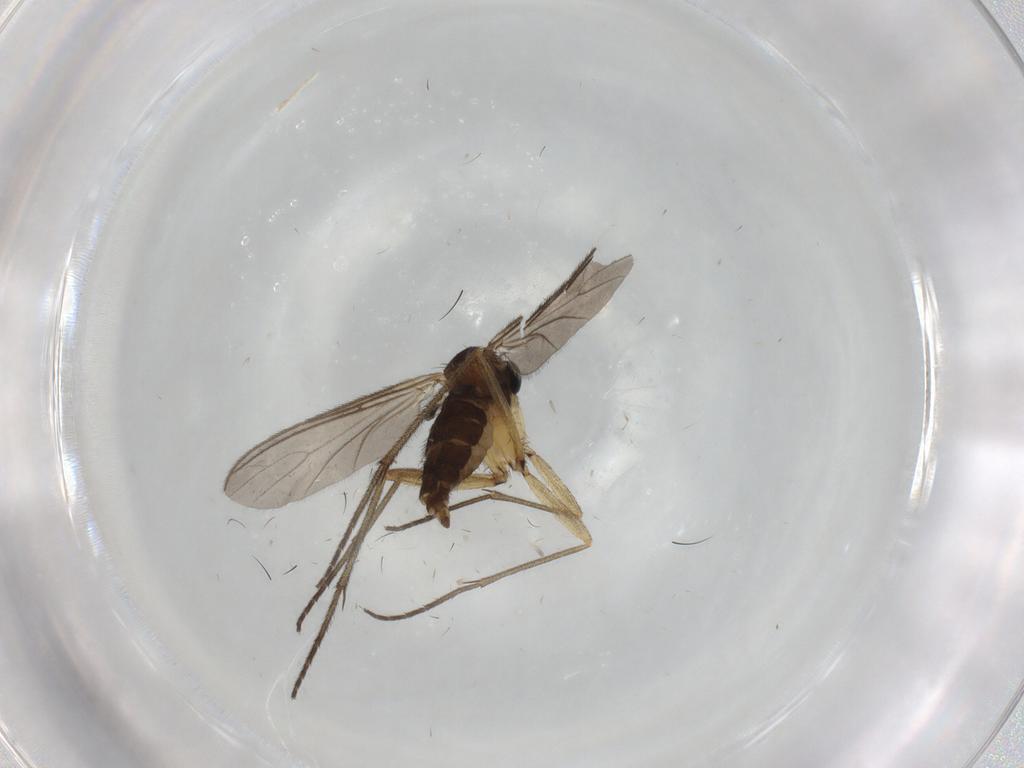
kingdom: Animalia
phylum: Arthropoda
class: Insecta
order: Diptera
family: Sciaridae
